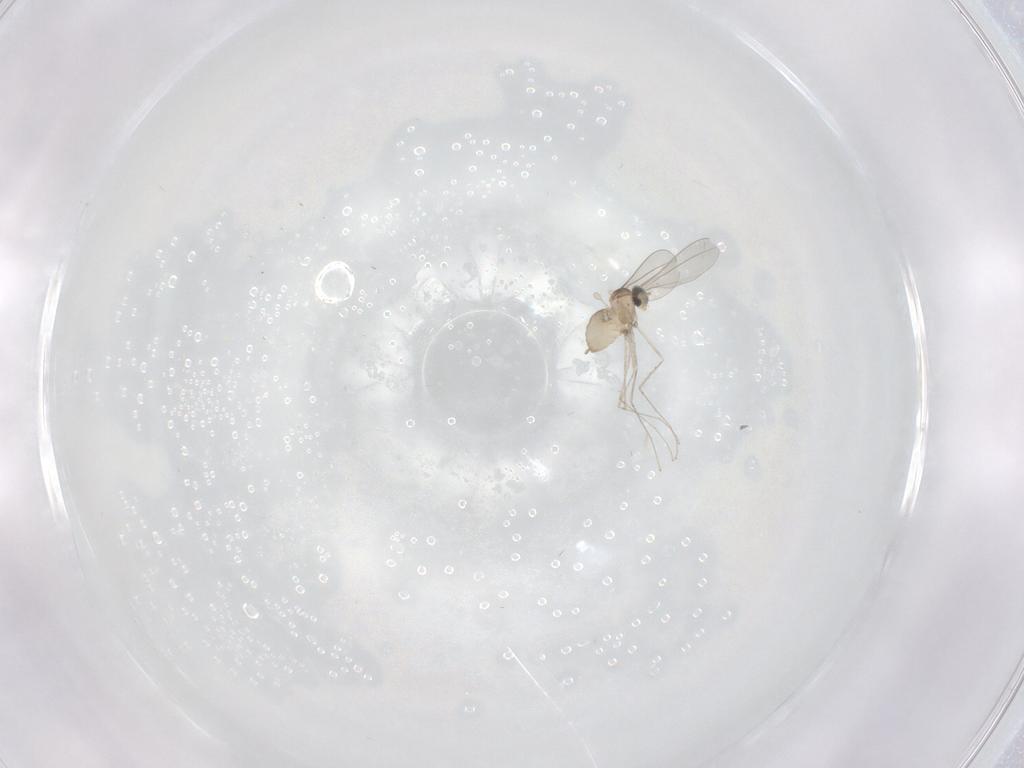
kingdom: Animalia
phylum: Arthropoda
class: Insecta
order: Diptera
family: Cecidomyiidae
